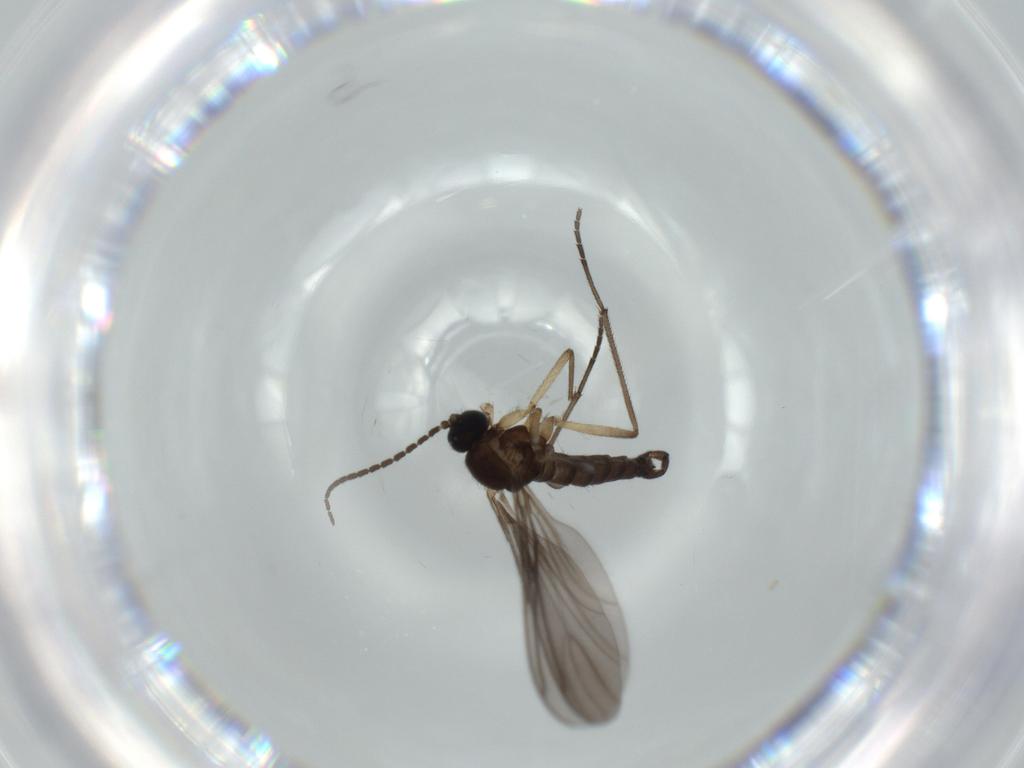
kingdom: Animalia
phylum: Arthropoda
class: Insecta
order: Diptera
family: Sciaridae
